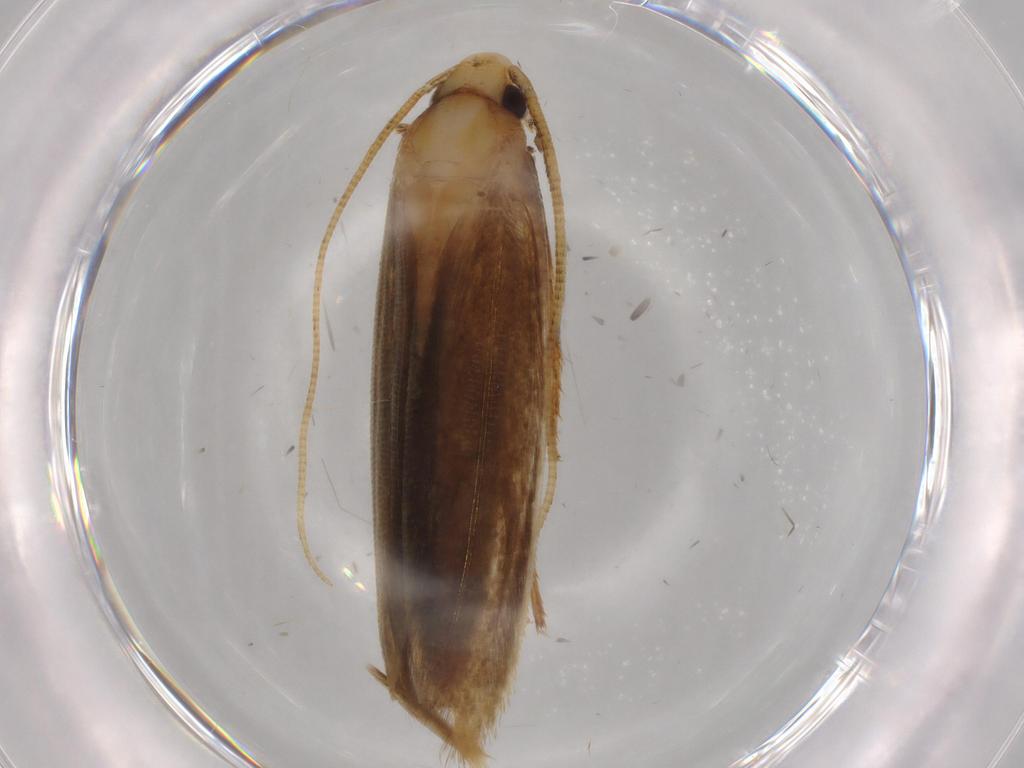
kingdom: Animalia
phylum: Arthropoda
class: Insecta
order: Lepidoptera
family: Tineidae
